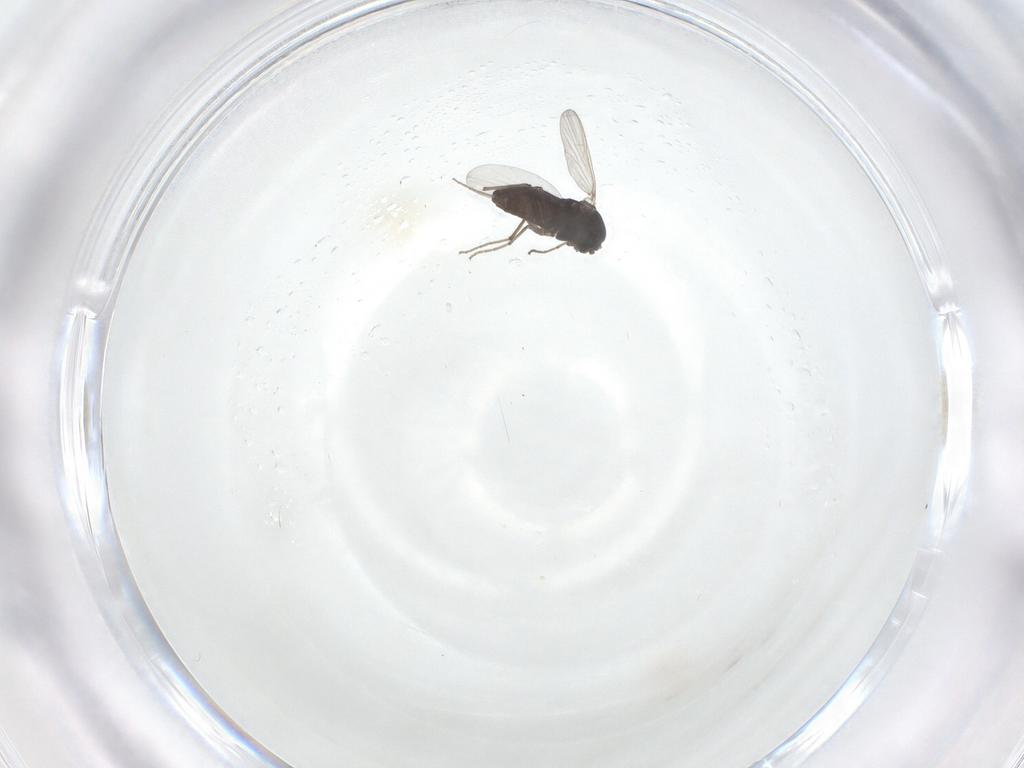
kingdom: Animalia
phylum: Arthropoda
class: Insecta
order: Diptera
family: Chironomidae
